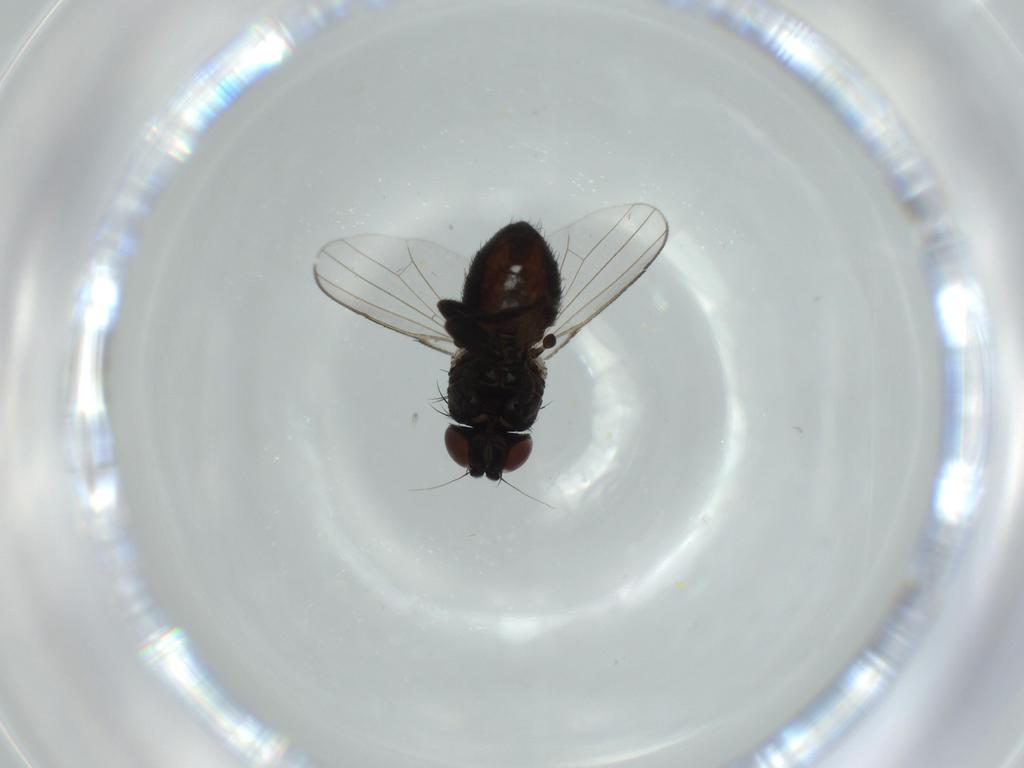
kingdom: Animalia
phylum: Arthropoda
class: Insecta
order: Diptera
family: Milichiidae
